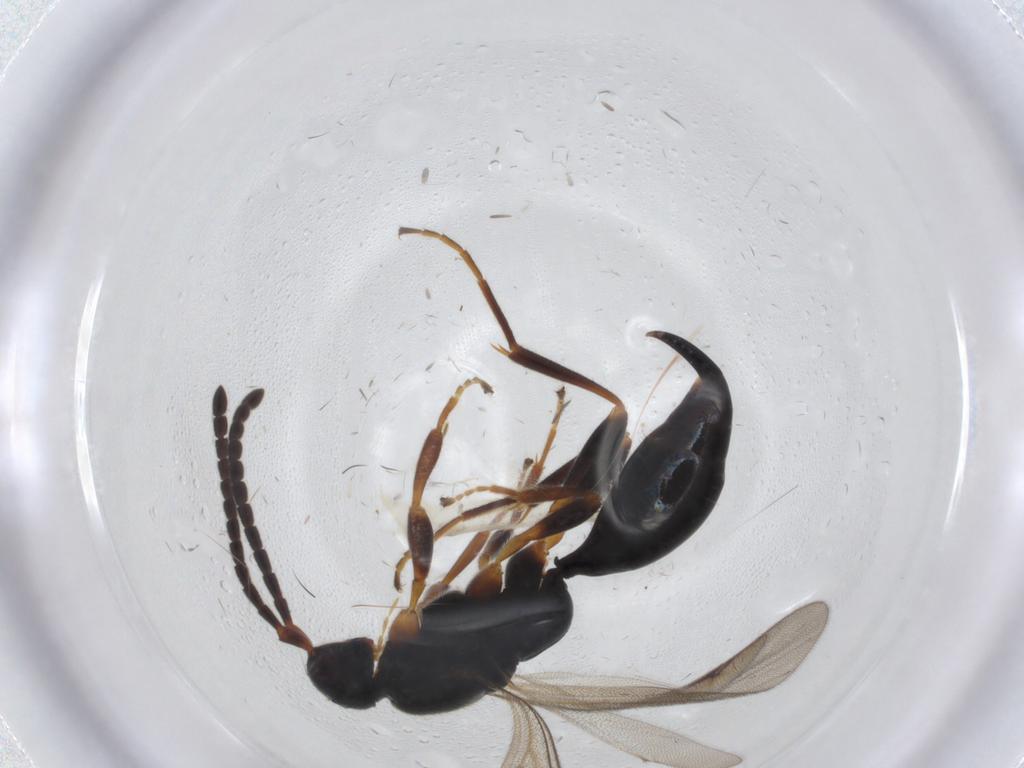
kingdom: Animalia
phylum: Arthropoda
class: Insecta
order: Hymenoptera
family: Proctotrupidae
